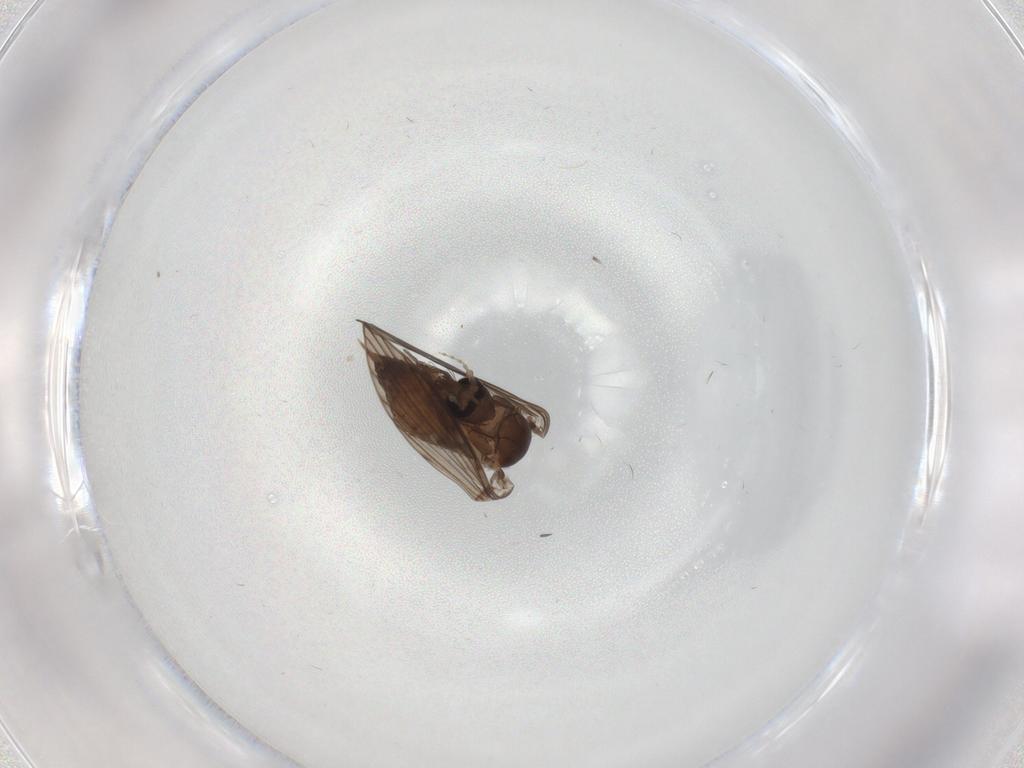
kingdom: Animalia
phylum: Arthropoda
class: Insecta
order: Diptera
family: Psychodidae
